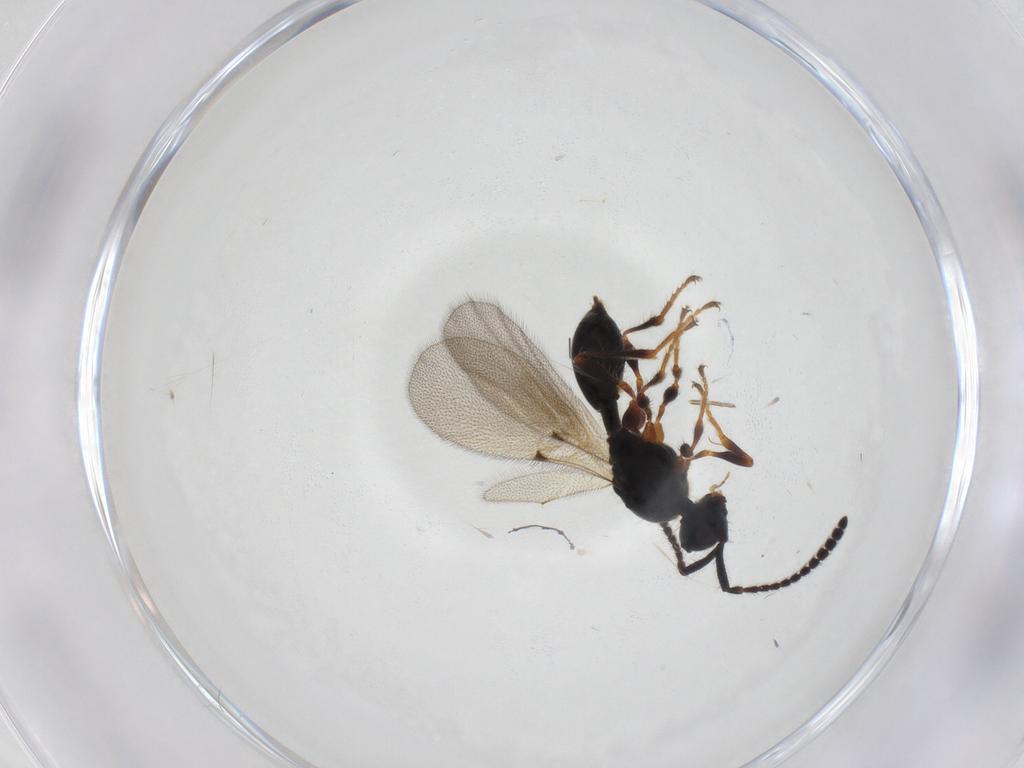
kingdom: Animalia
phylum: Arthropoda
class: Insecta
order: Hymenoptera
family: Diapriidae
